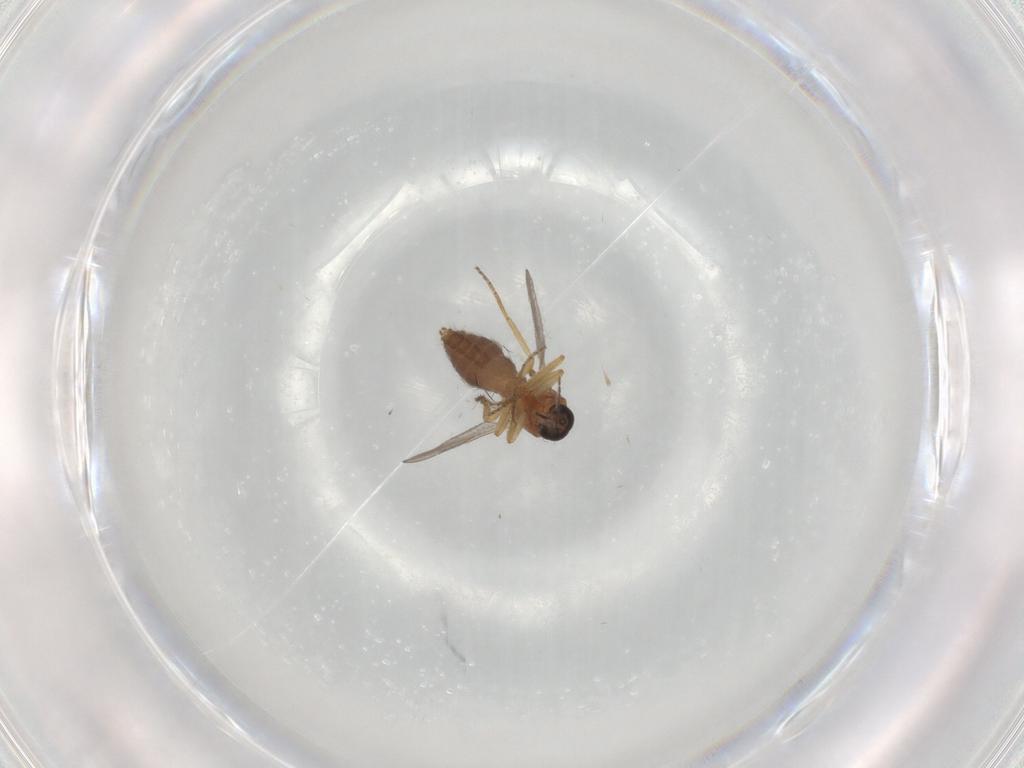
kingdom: Animalia
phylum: Arthropoda
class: Insecta
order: Diptera
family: Ceratopogonidae
